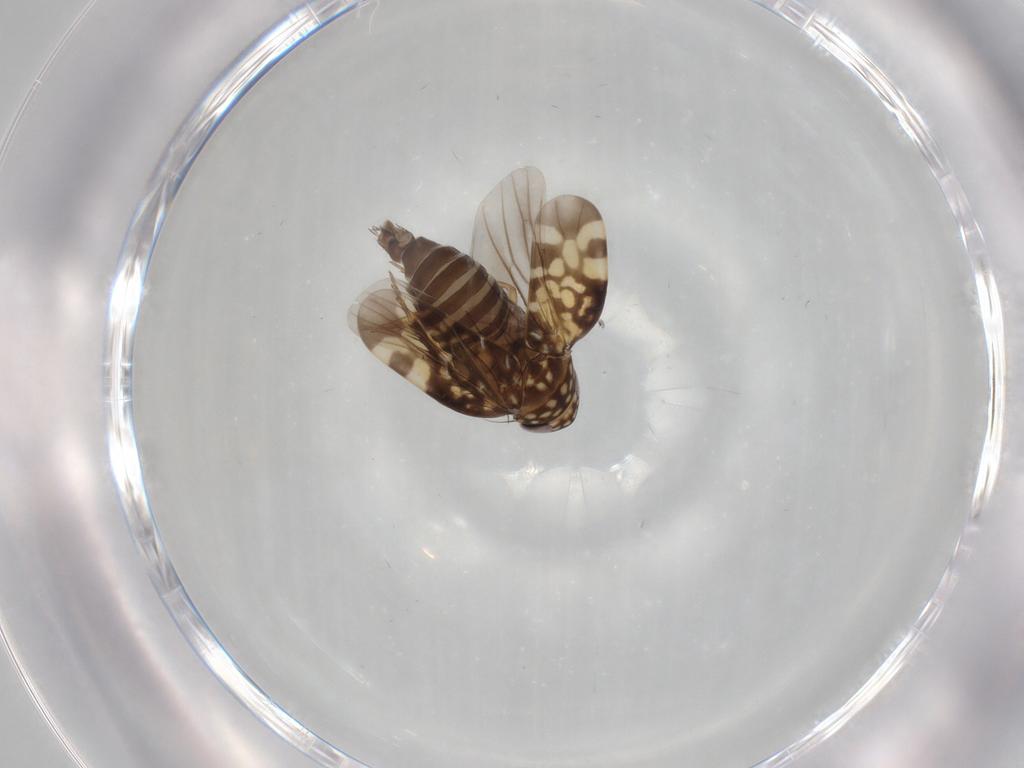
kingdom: Animalia
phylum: Arthropoda
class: Insecta
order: Hemiptera
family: Cicadellidae
